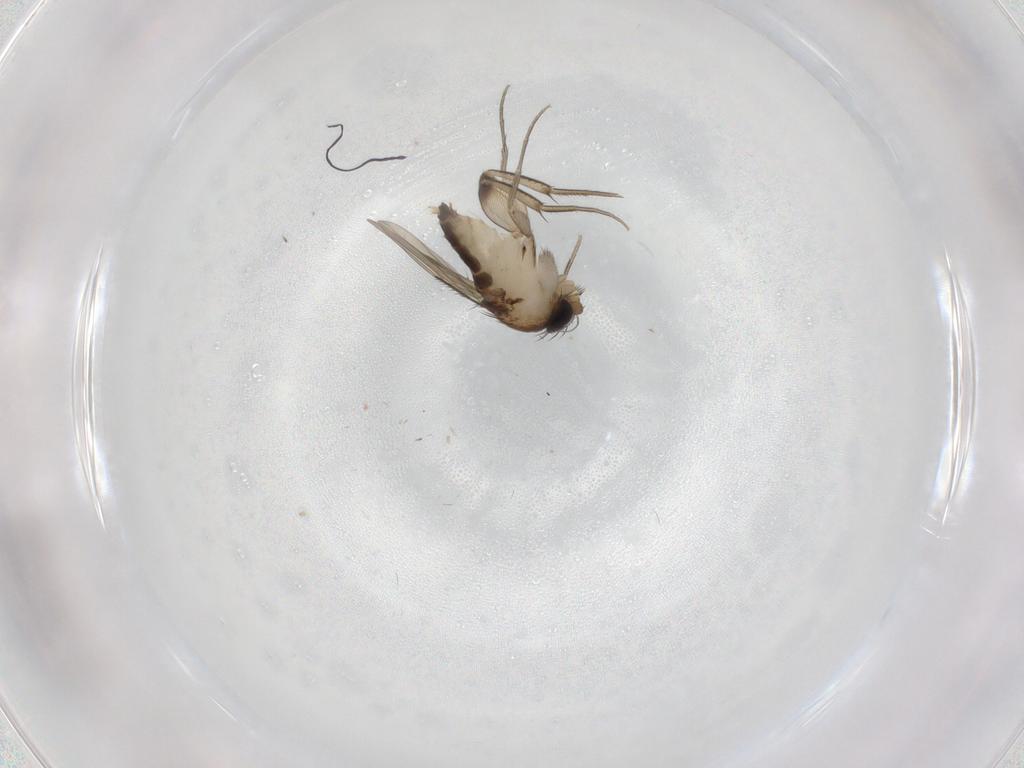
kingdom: Animalia
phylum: Arthropoda
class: Insecta
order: Diptera
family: Phoridae
